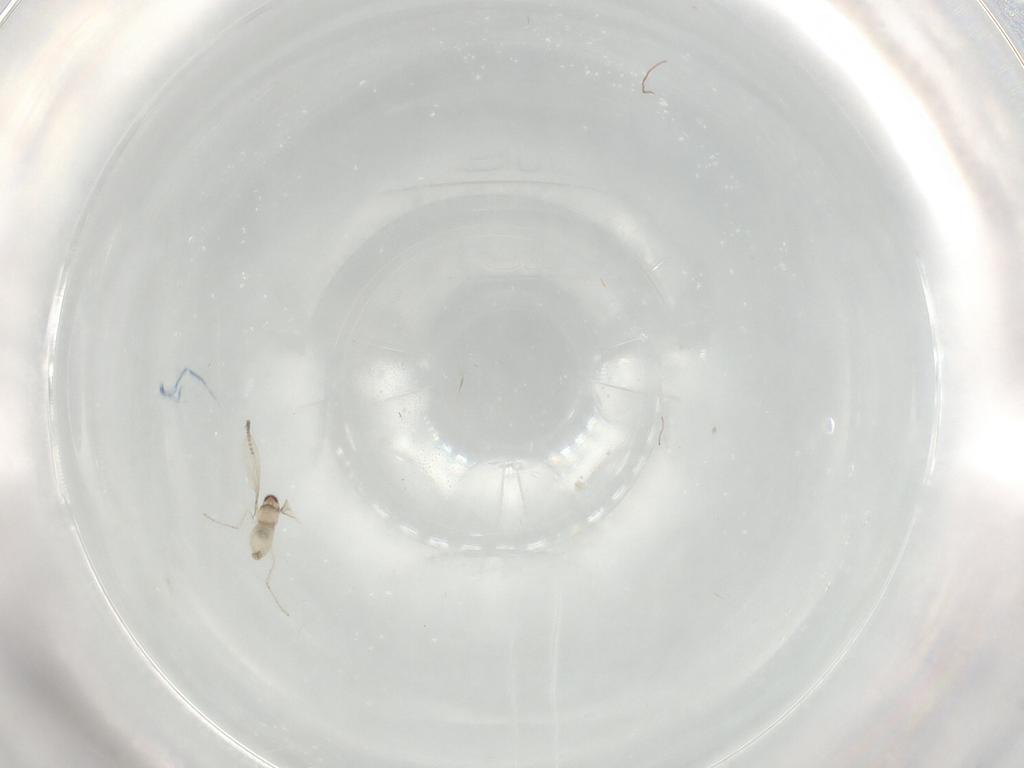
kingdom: Animalia
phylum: Arthropoda
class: Insecta
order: Diptera
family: Cecidomyiidae
